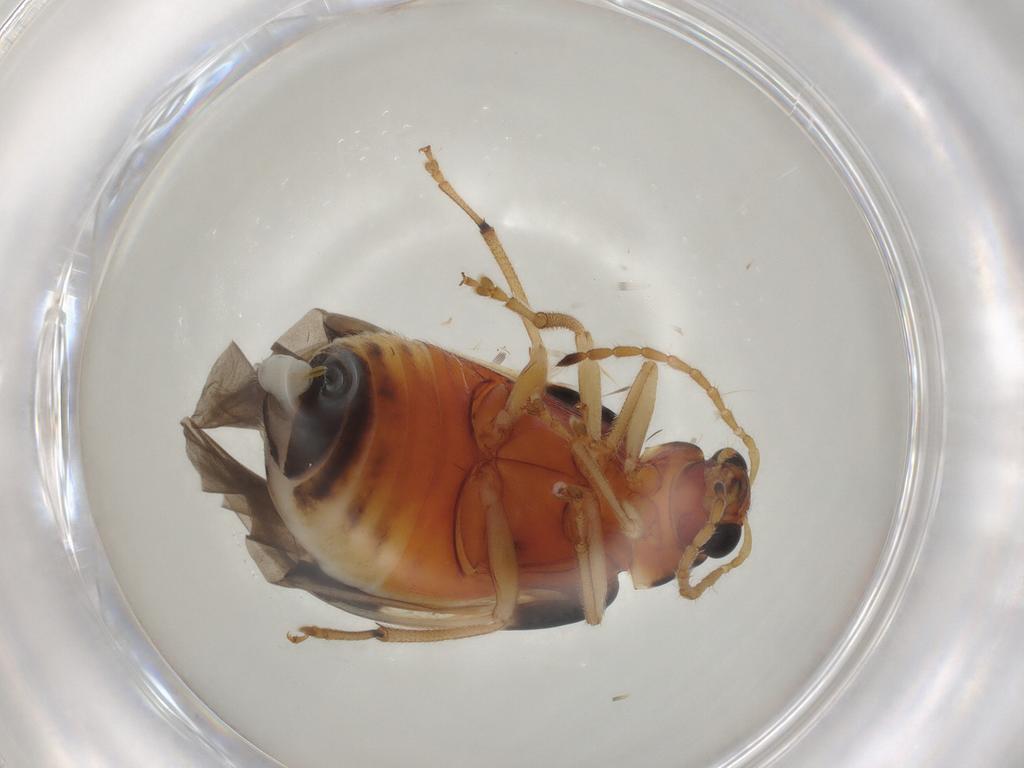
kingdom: Animalia
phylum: Arthropoda
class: Insecta
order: Coleoptera
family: Chrysomelidae
